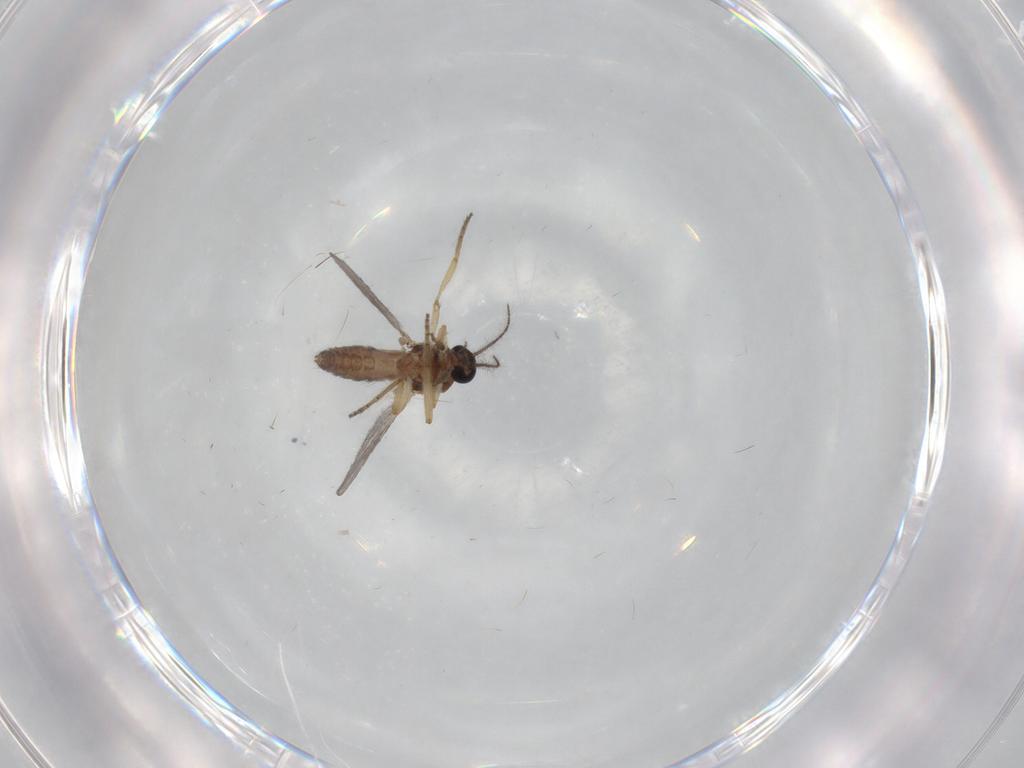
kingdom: Animalia
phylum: Arthropoda
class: Insecta
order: Diptera
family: Ceratopogonidae
